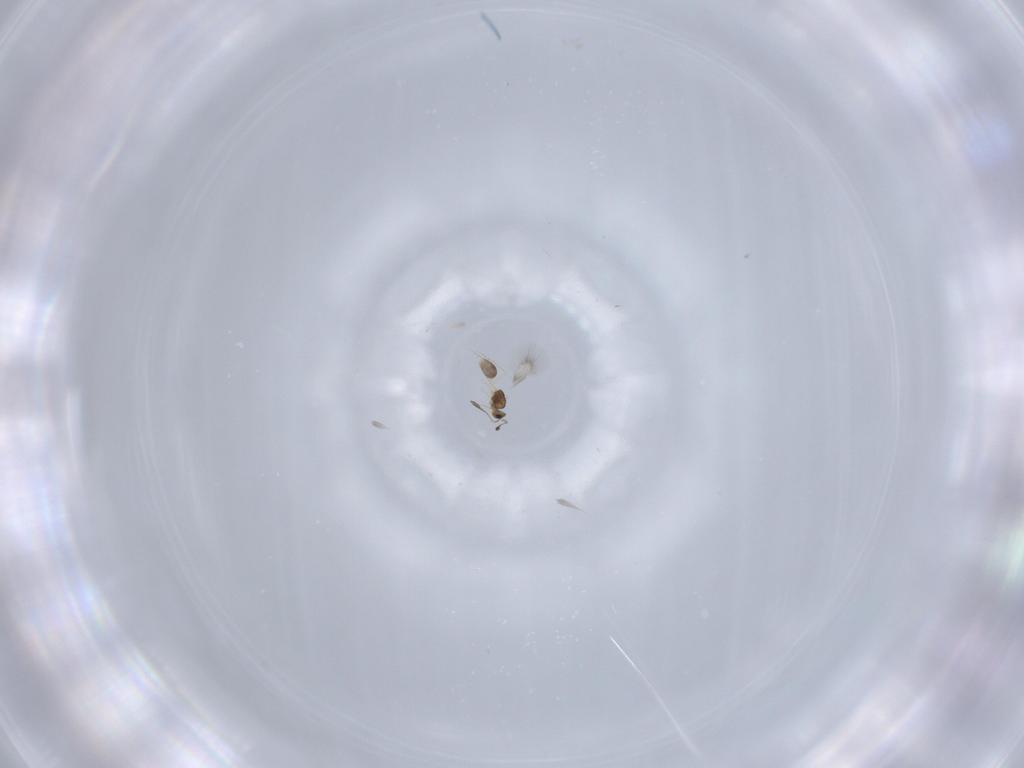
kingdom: Animalia
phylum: Arthropoda
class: Insecta
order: Hymenoptera
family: Mymarommatidae
